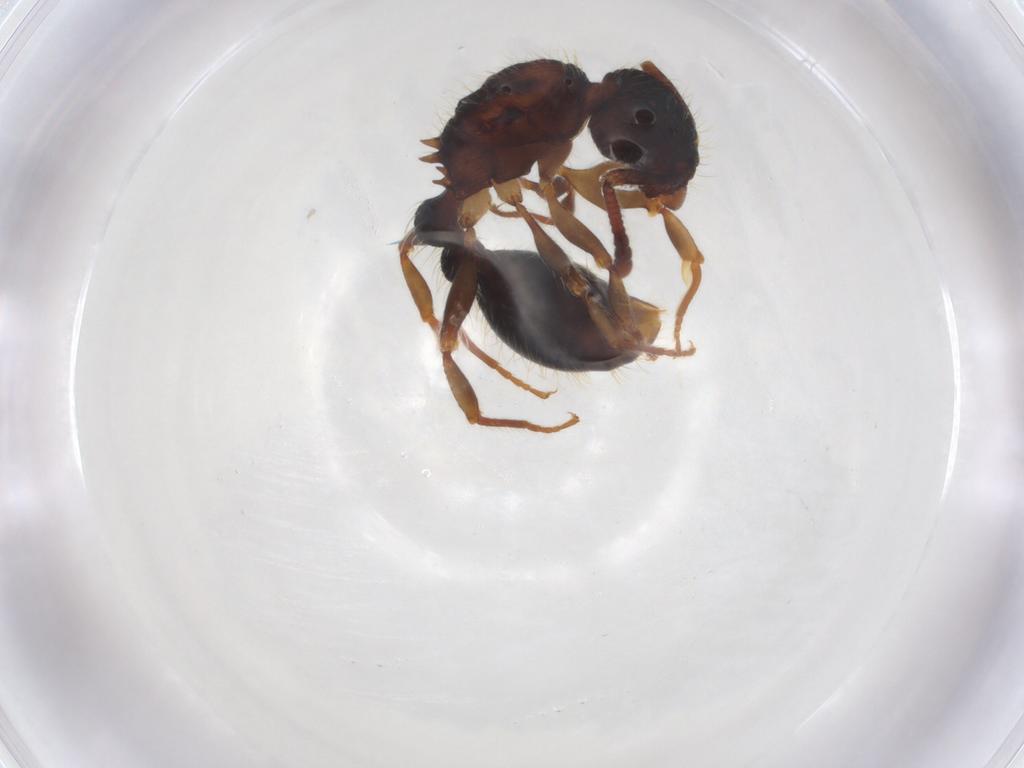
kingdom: Animalia
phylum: Arthropoda
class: Insecta
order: Hymenoptera
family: Formicidae
